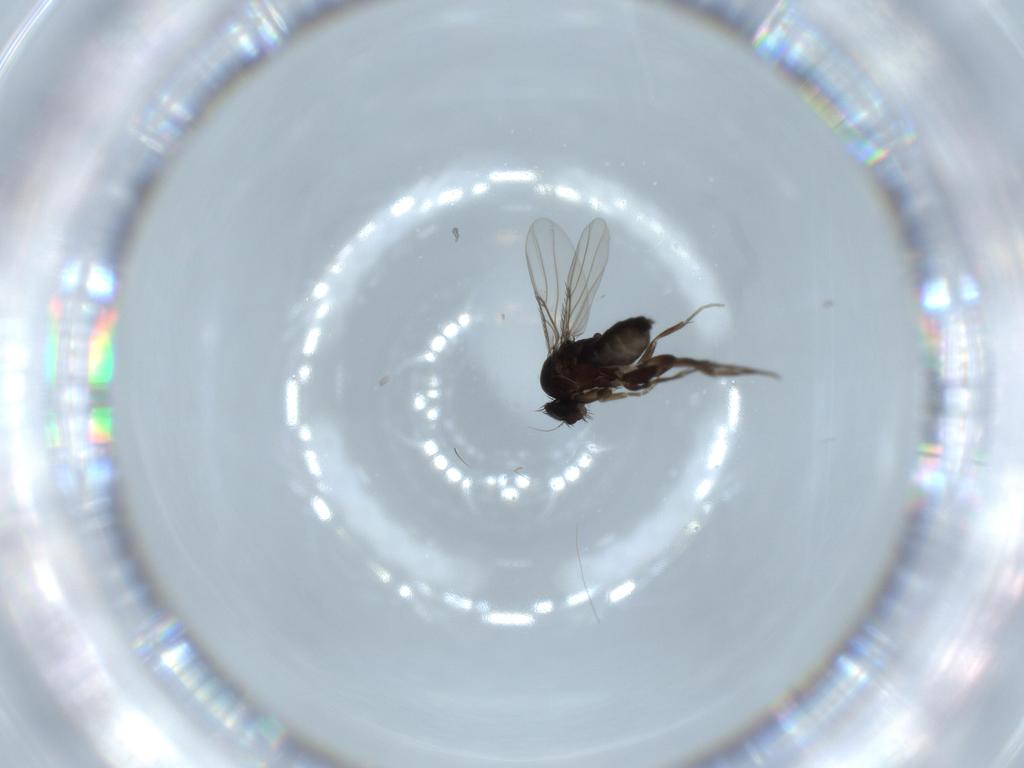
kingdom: Animalia
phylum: Arthropoda
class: Insecta
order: Diptera
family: Phoridae
